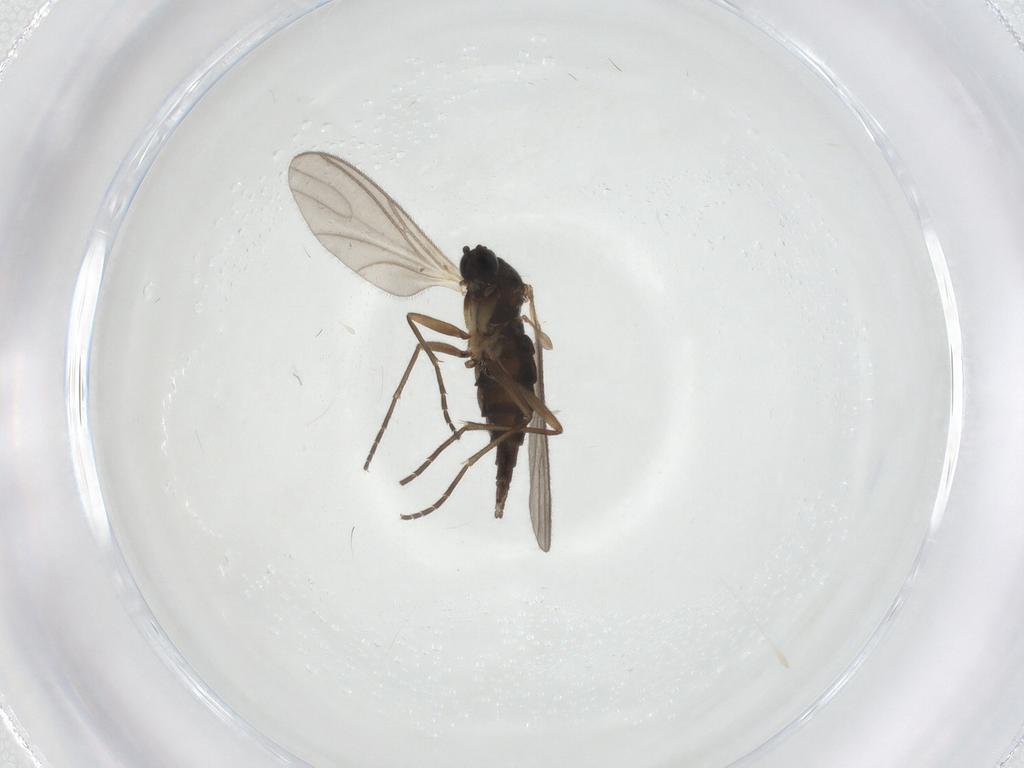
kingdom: Animalia
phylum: Arthropoda
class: Insecta
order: Diptera
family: Sciaridae
